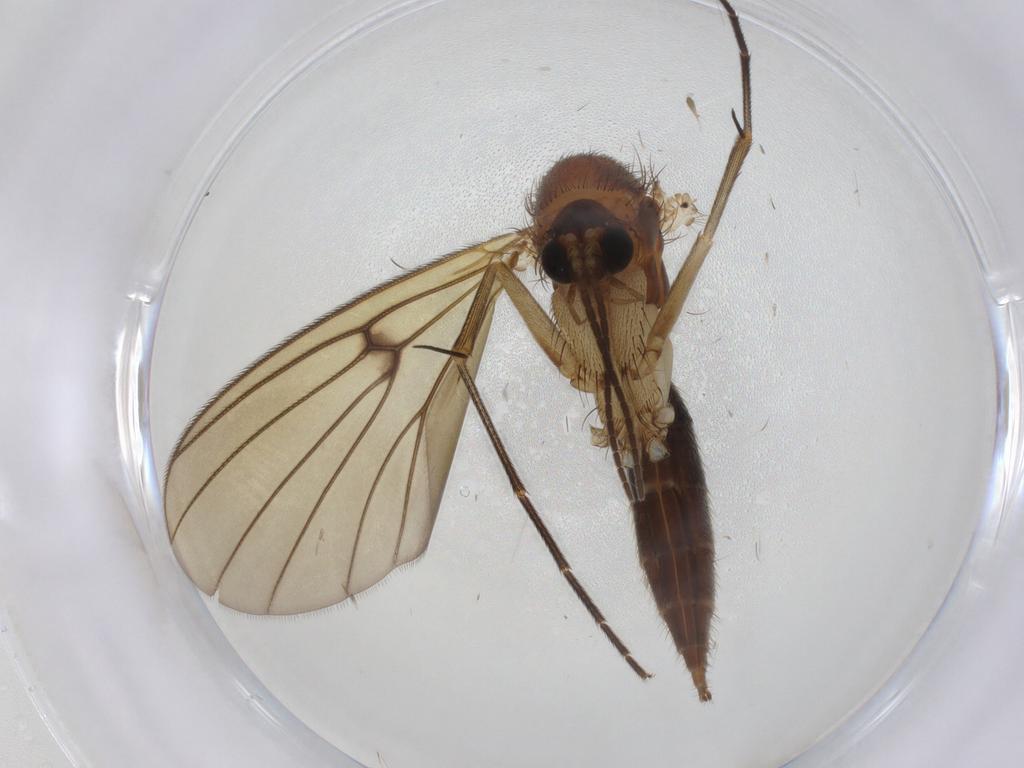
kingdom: Animalia
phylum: Arthropoda
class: Insecta
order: Diptera
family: Mycetophilidae
